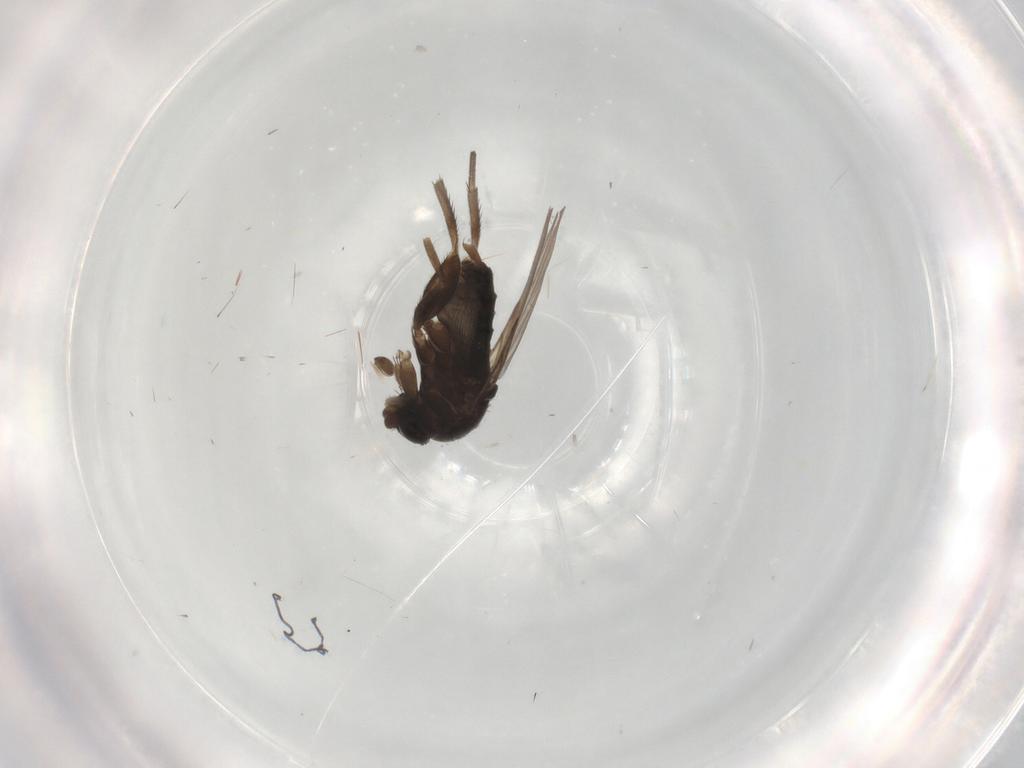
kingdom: Animalia
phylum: Arthropoda
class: Insecta
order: Diptera
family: Phoridae
